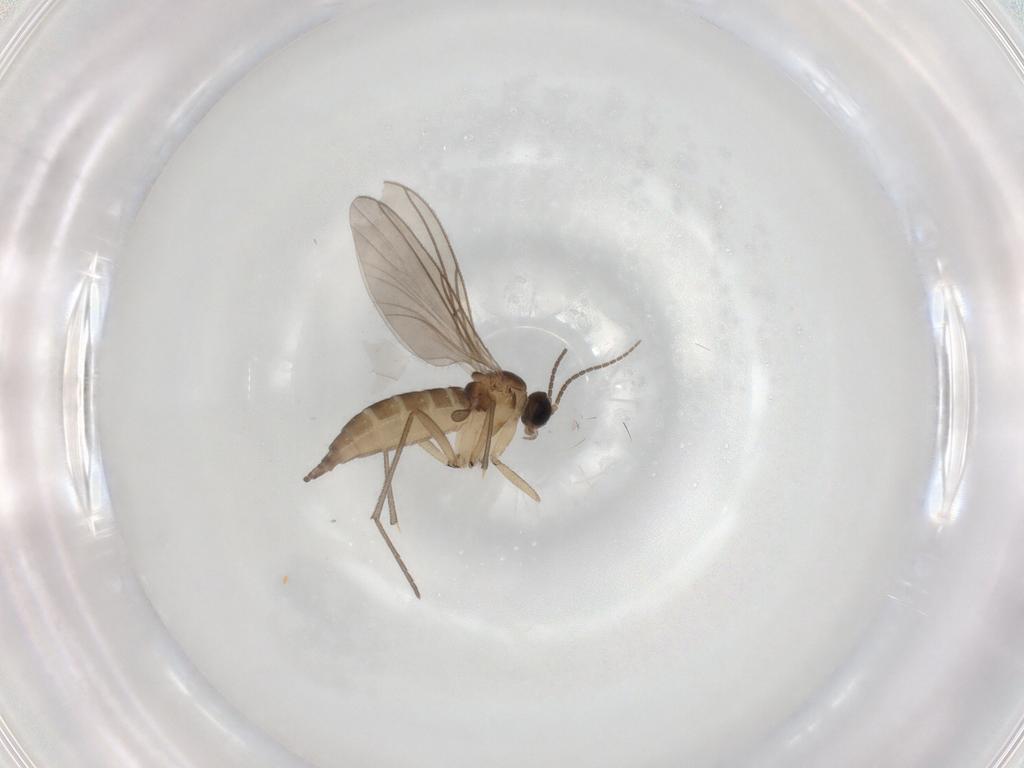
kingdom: Animalia
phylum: Arthropoda
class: Insecta
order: Diptera
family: Sciaridae
